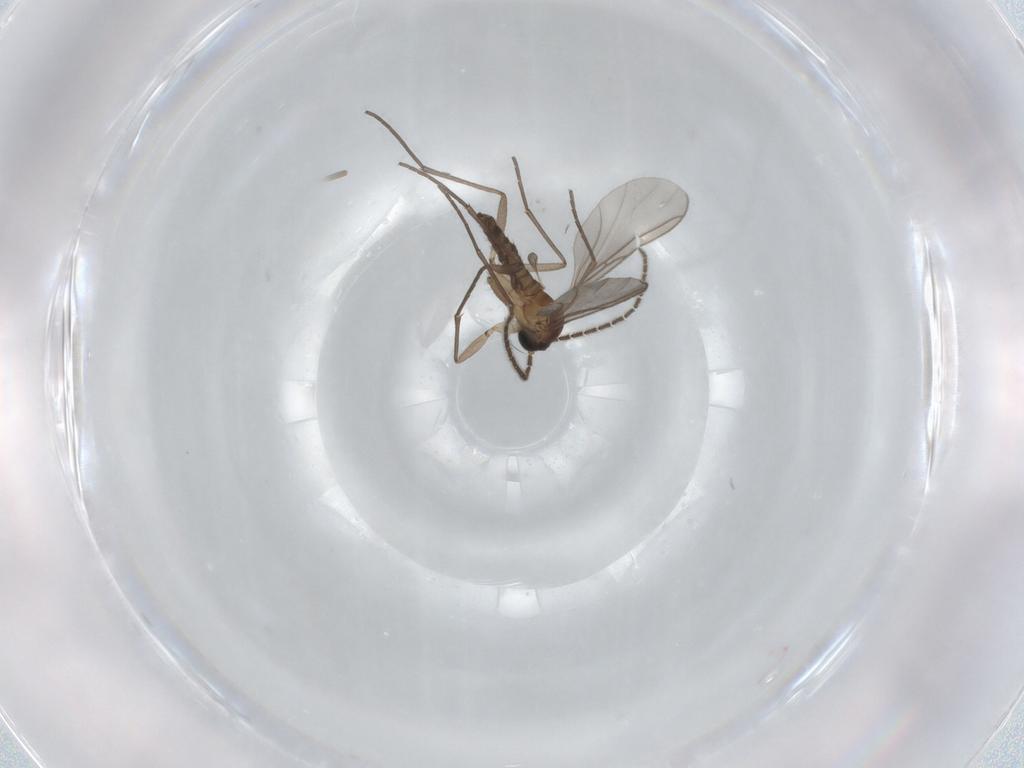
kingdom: Animalia
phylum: Arthropoda
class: Insecta
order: Diptera
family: Sciaridae
